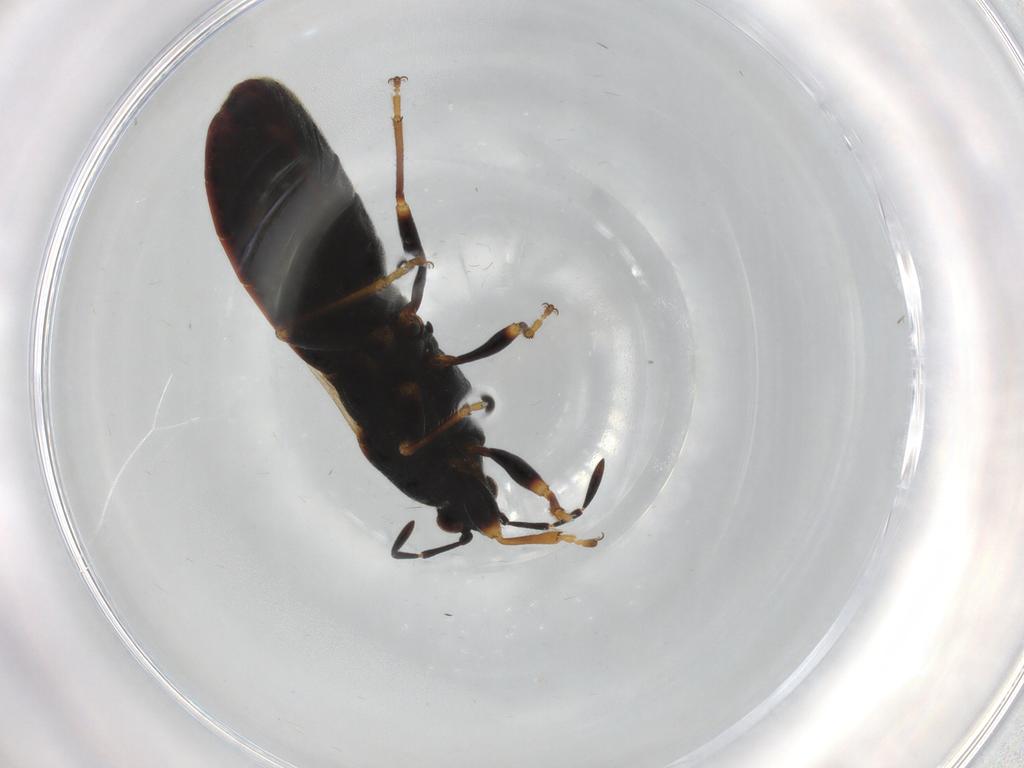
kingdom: Animalia
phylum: Arthropoda
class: Insecta
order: Hemiptera
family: Blissidae
